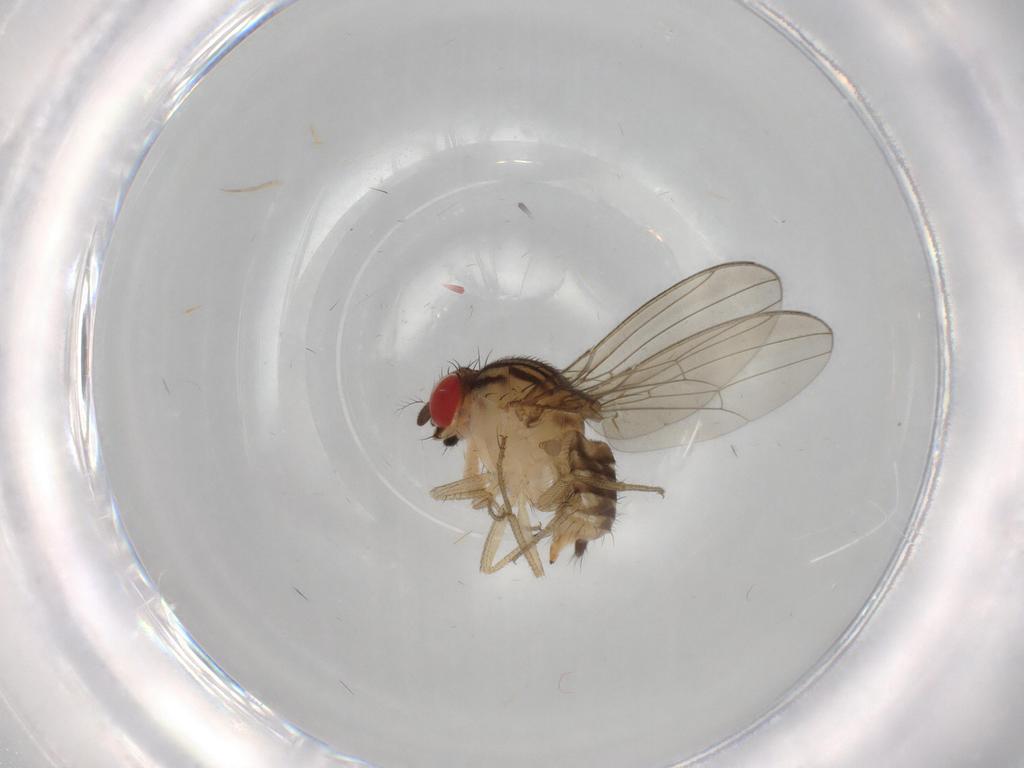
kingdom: Animalia
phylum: Arthropoda
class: Insecta
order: Diptera
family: Drosophilidae
